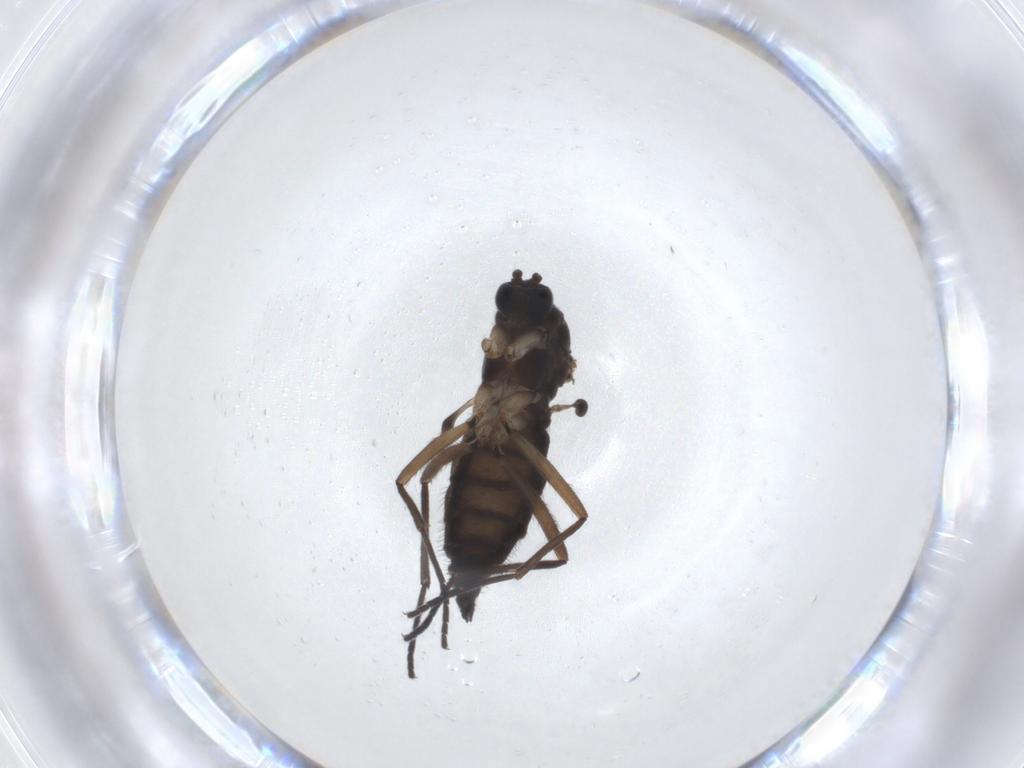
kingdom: Animalia
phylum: Arthropoda
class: Insecta
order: Diptera
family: Sciaridae
